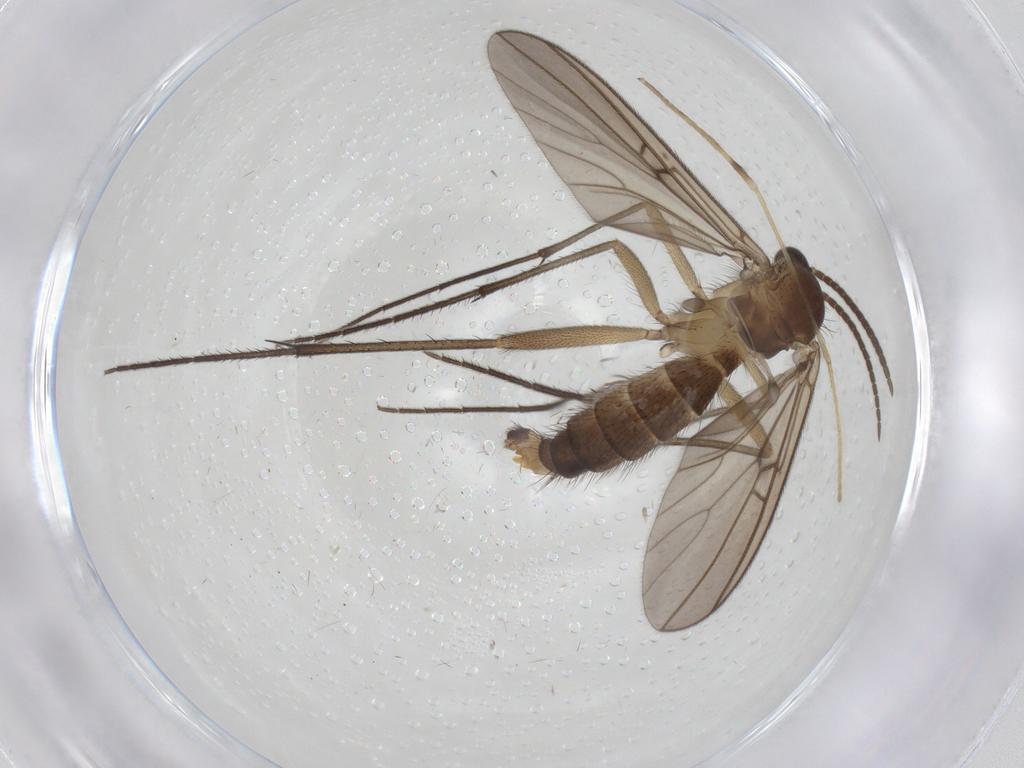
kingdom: Animalia
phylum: Arthropoda
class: Insecta
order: Diptera
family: Mycetophilidae
